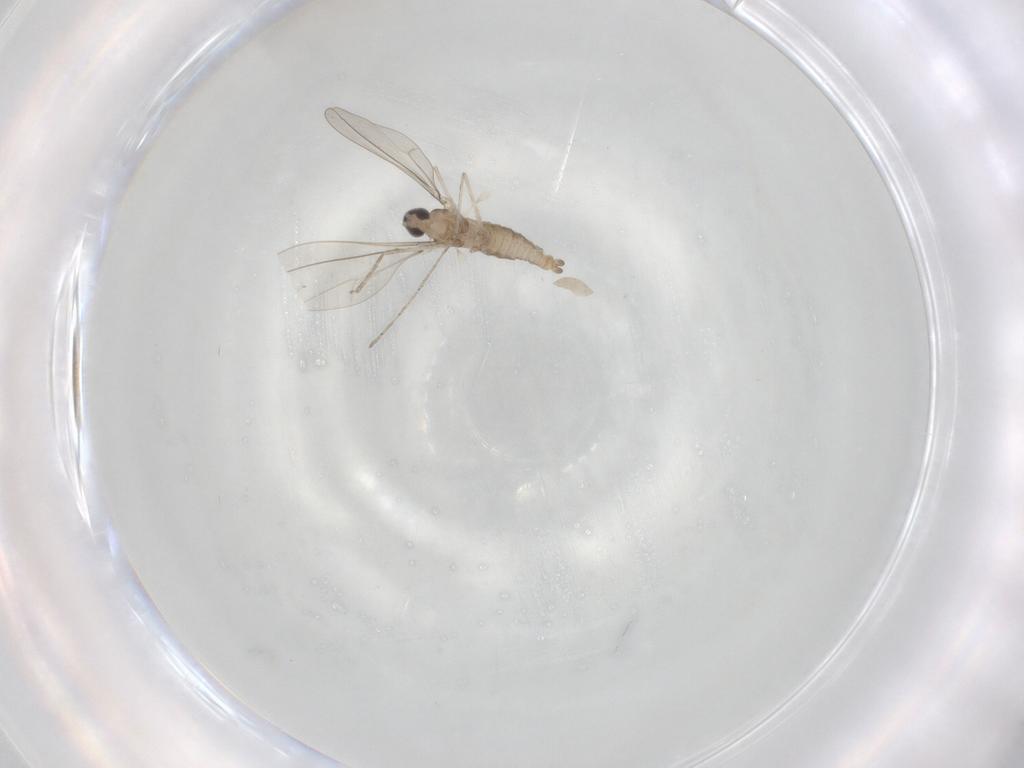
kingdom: Animalia
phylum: Arthropoda
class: Insecta
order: Diptera
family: Cecidomyiidae
